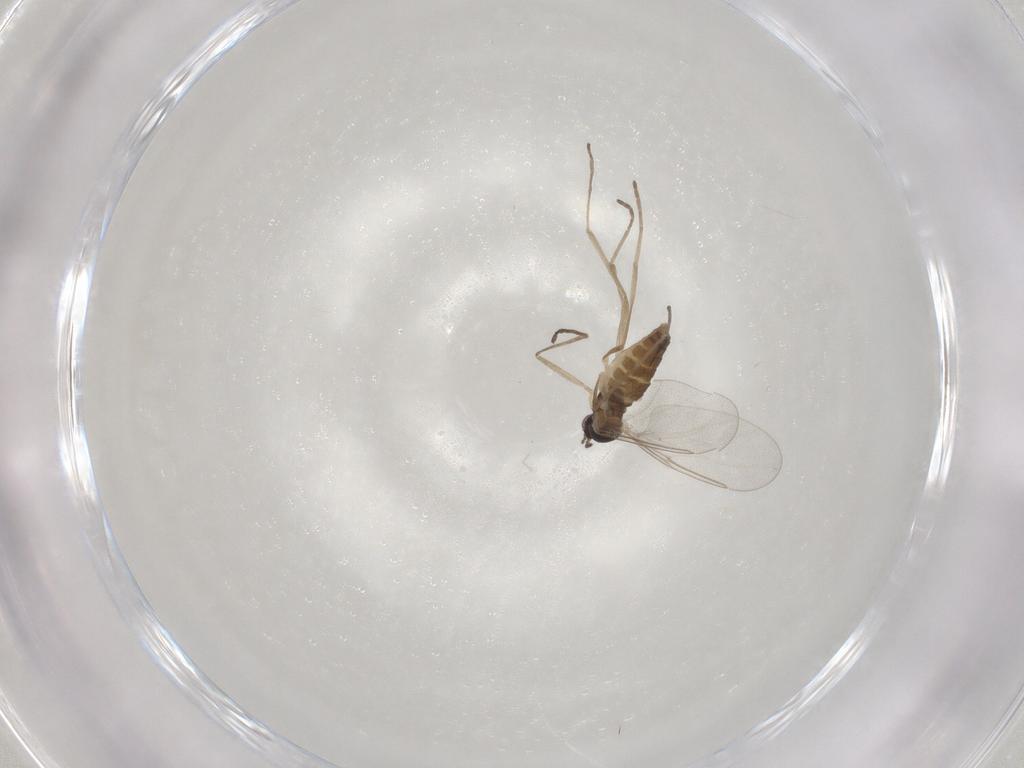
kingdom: Animalia
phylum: Arthropoda
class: Insecta
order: Diptera
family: Cecidomyiidae
